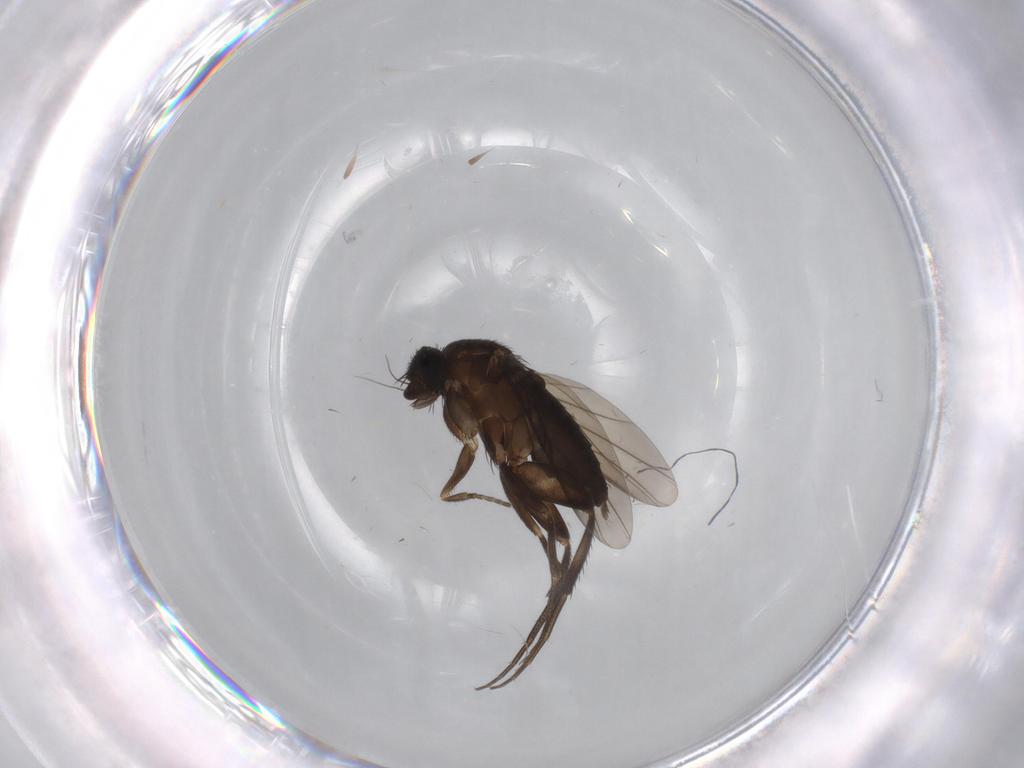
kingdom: Animalia
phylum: Arthropoda
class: Insecta
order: Diptera
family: Phoridae
